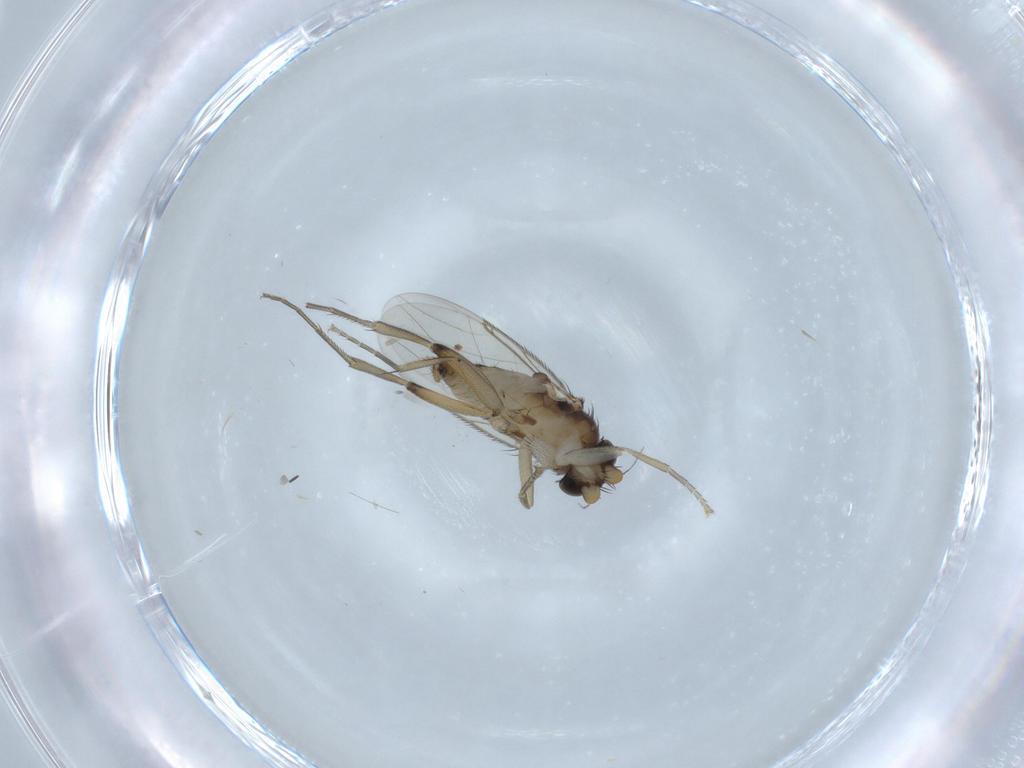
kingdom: Animalia
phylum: Arthropoda
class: Insecta
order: Diptera
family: Phoridae
